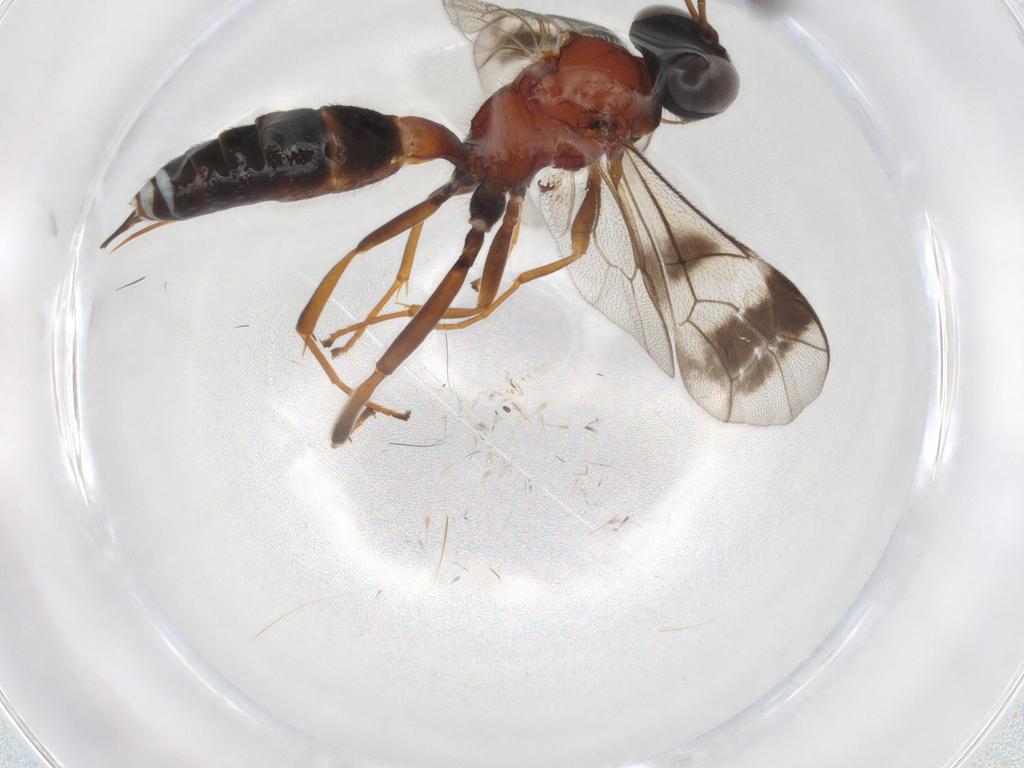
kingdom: Animalia
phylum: Arthropoda
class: Insecta
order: Hymenoptera
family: Ichneumonidae
